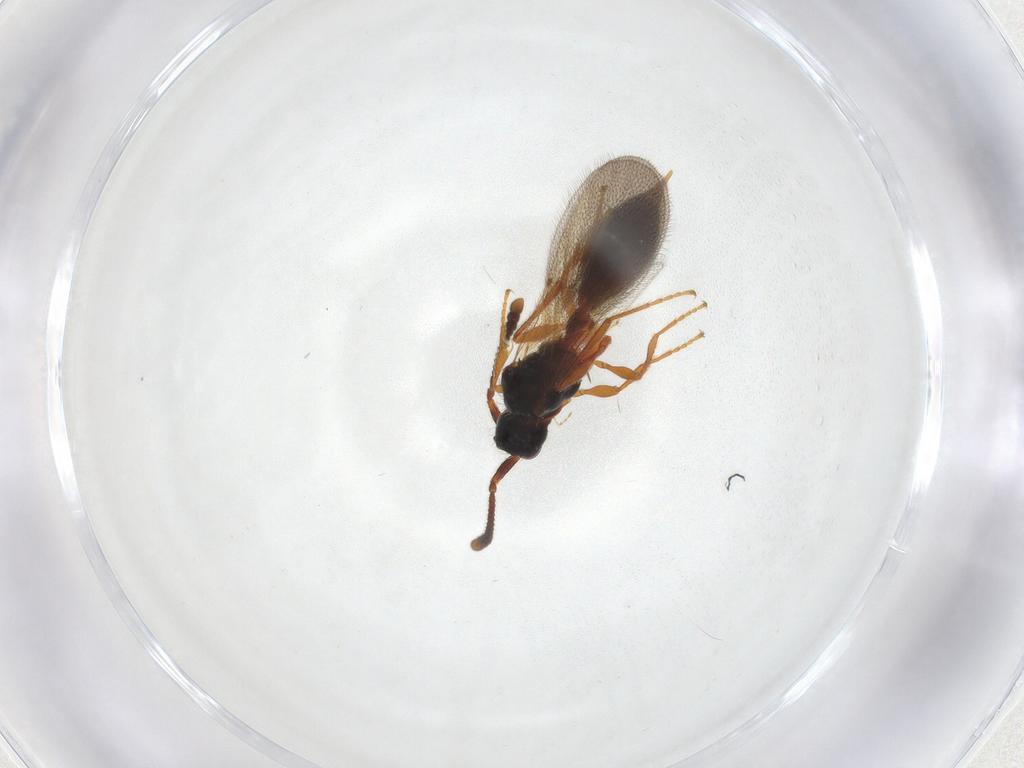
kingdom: Animalia
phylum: Arthropoda
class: Insecta
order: Hymenoptera
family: Diapriidae
